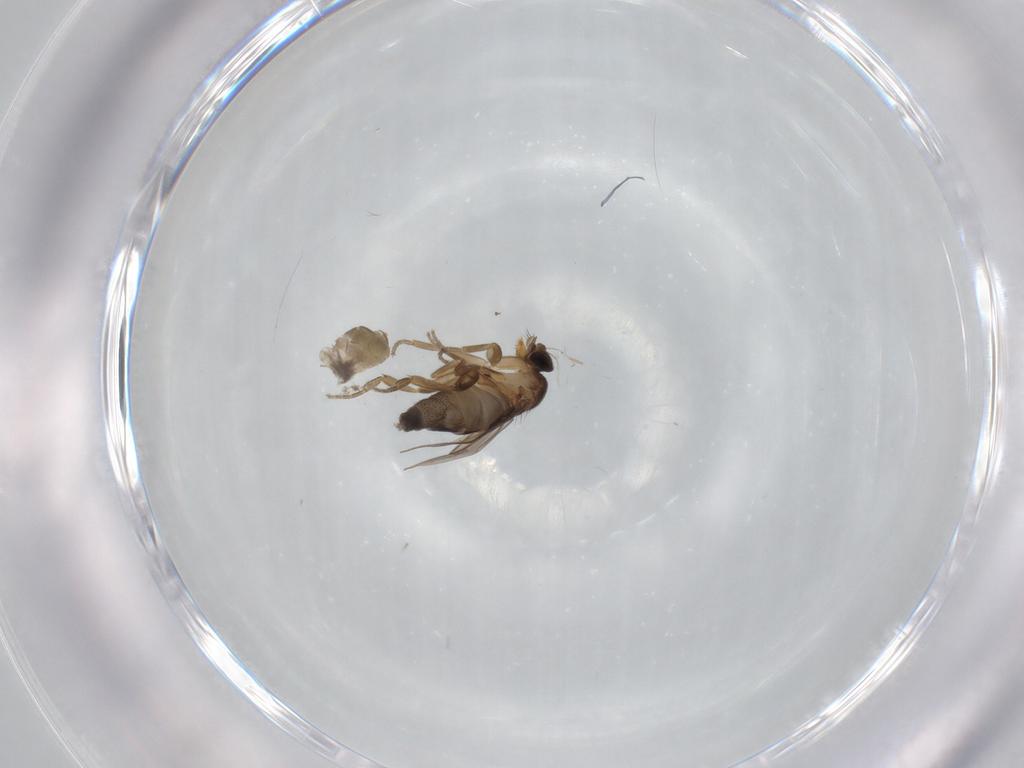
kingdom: Animalia
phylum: Arthropoda
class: Insecta
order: Diptera
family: Phoridae
